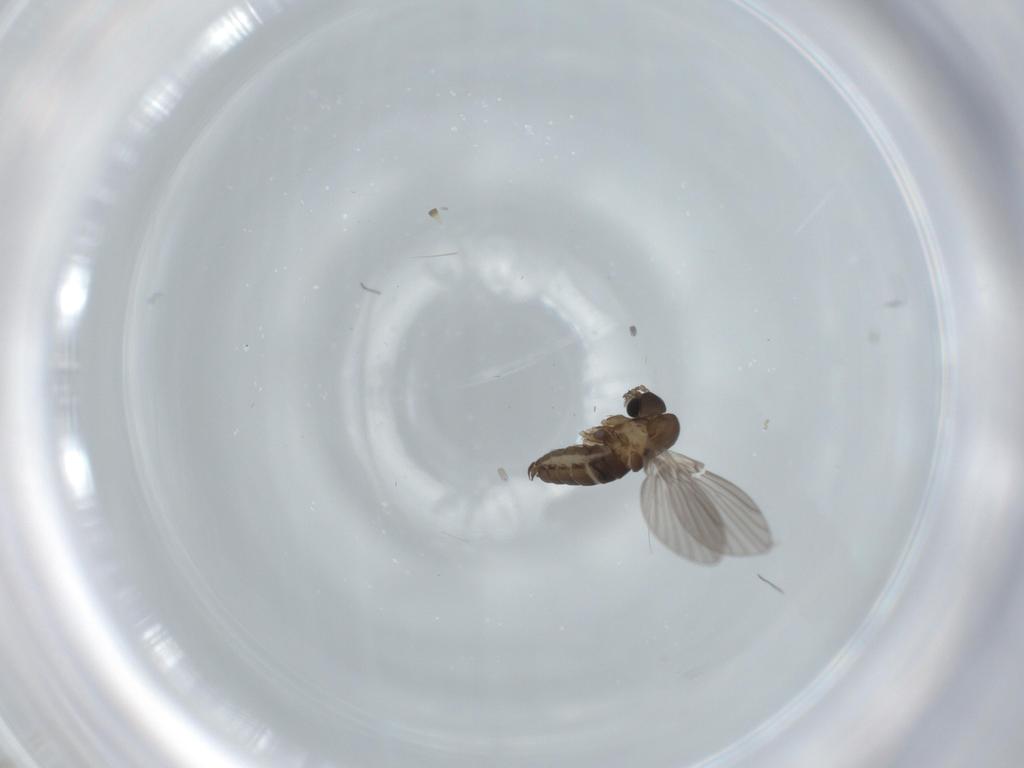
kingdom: Animalia
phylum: Arthropoda
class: Insecta
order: Diptera
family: Psychodidae
